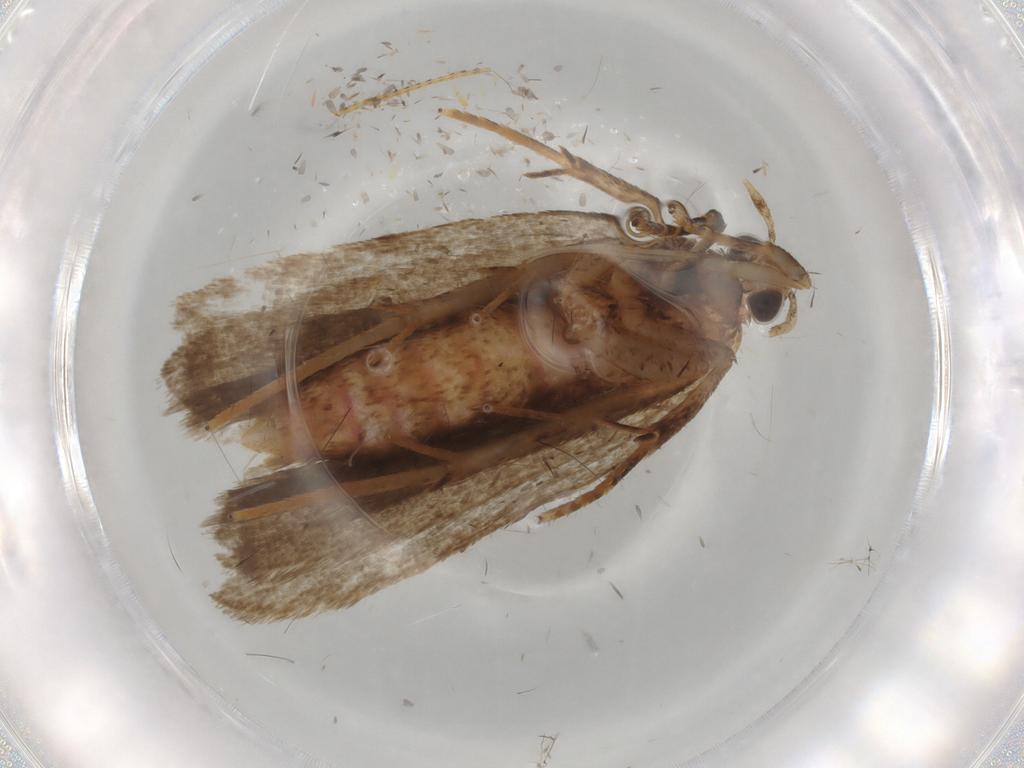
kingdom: Animalia
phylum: Arthropoda
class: Insecta
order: Lepidoptera
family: Autostichidae
